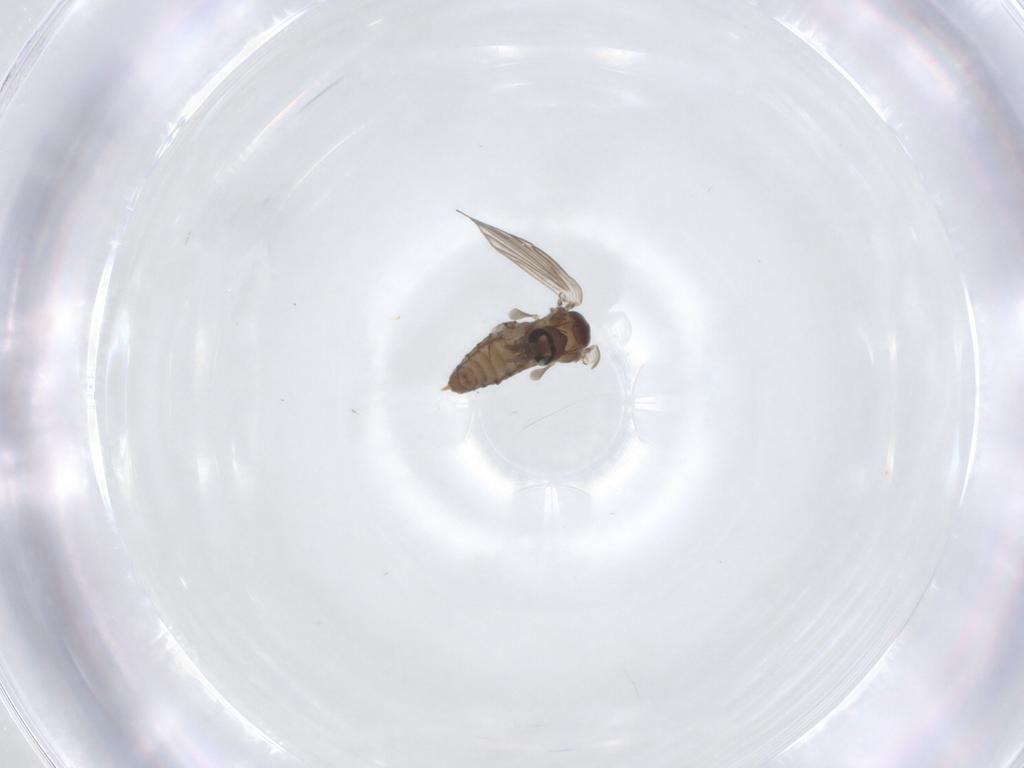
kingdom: Animalia
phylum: Arthropoda
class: Insecta
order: Diptera
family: Psychodidae
